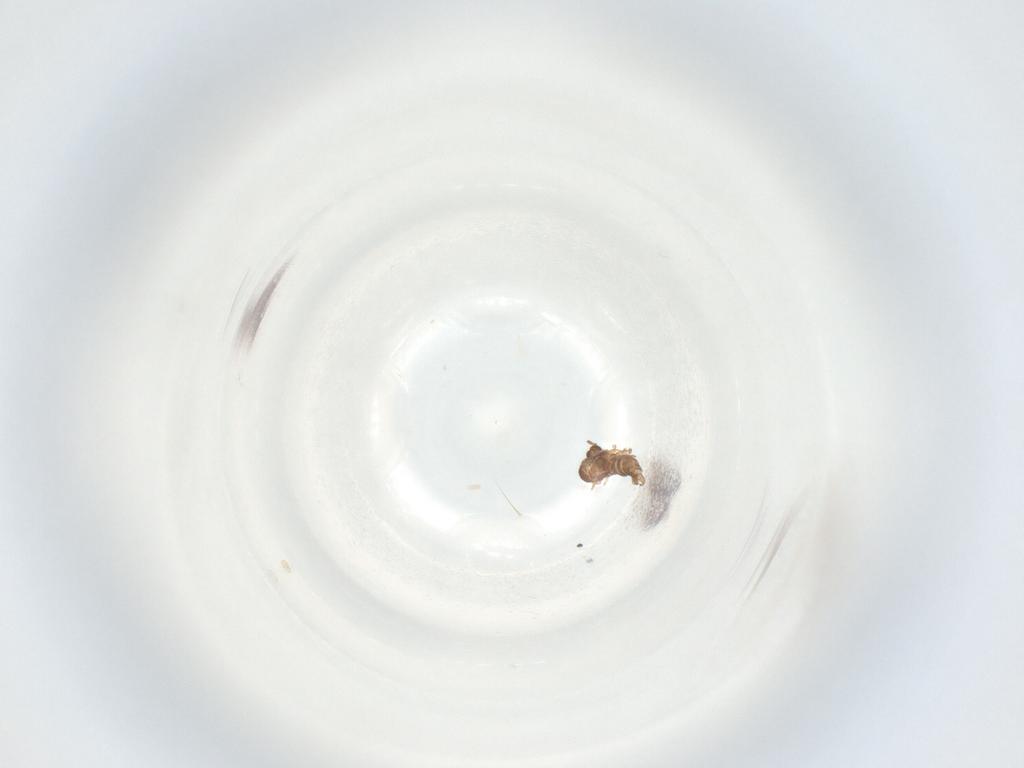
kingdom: Animalia
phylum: Arthropoda
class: Insecta
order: Diptera
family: Sciaridae
